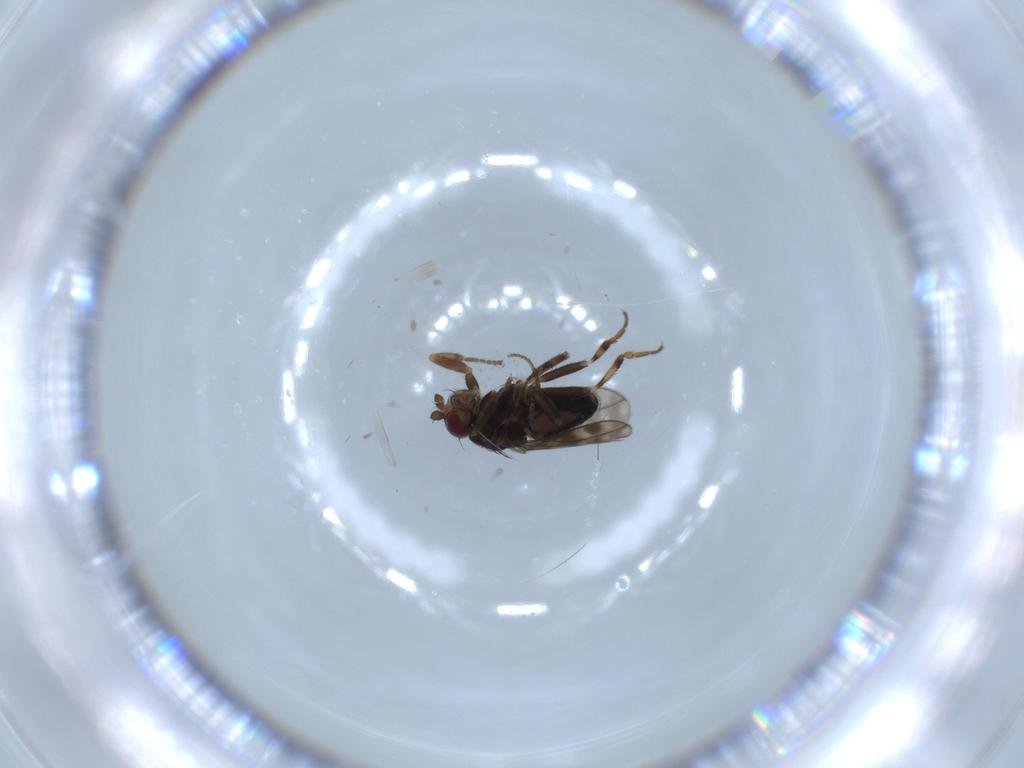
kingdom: Animalia
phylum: Arthropoda
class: Insecta
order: Diptera
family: Sphaeroceridae
